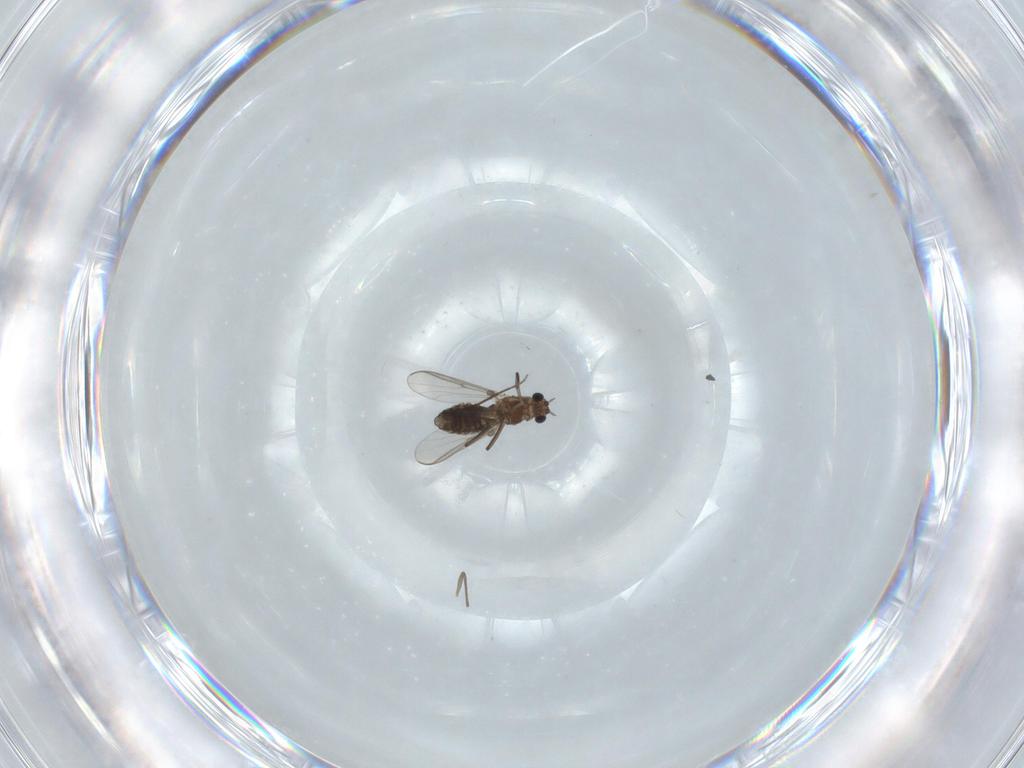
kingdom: Animalia
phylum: Arthropoda
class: Insecta
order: Diptera
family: Chironomidae
